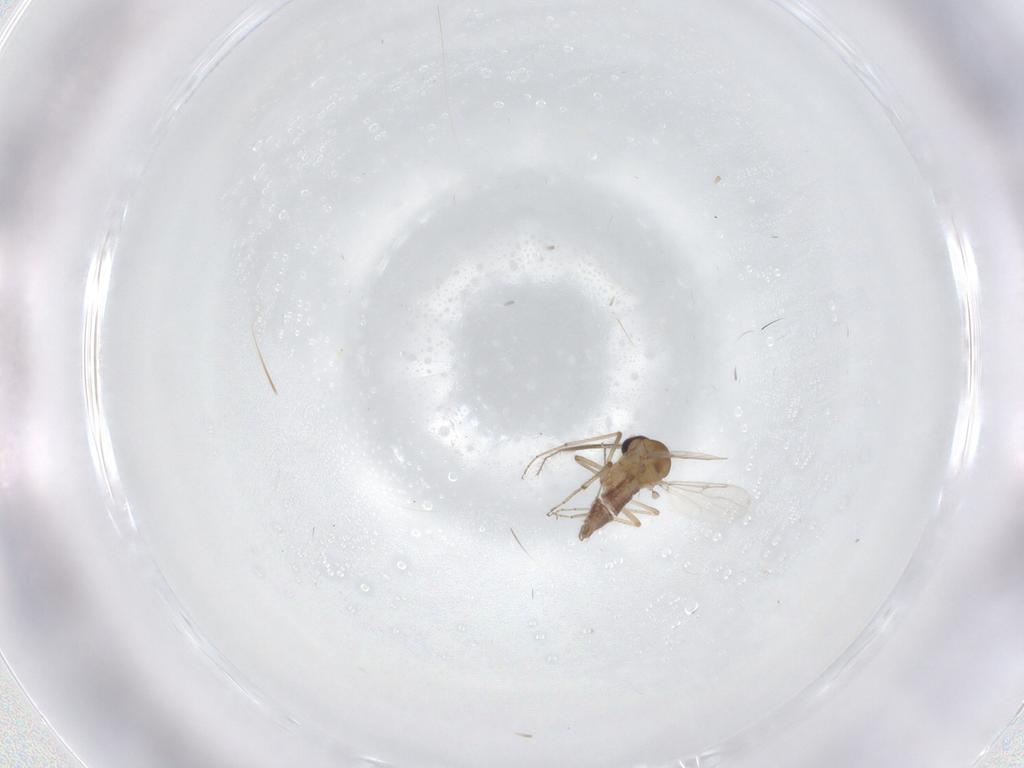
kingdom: Animalia
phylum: Arthropoda
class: Insecta
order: Diptera
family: Ceratopogonidae
